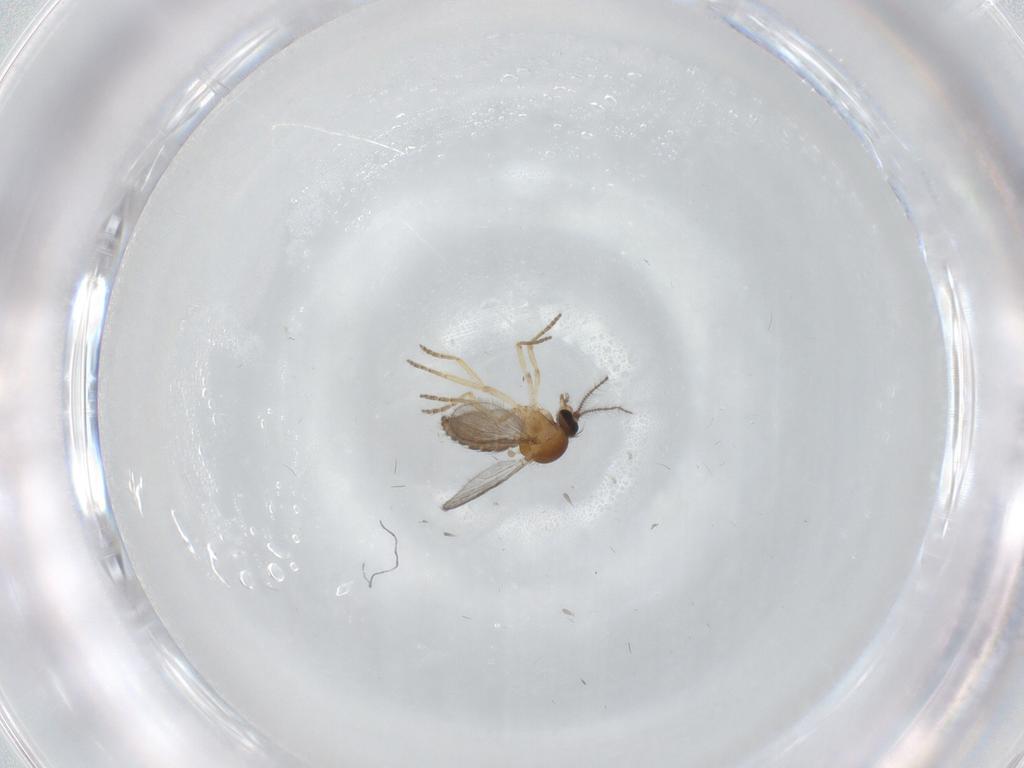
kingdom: Animalia
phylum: Arthropoda
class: Insecta
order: Diptera
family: Ceratopogonidae
